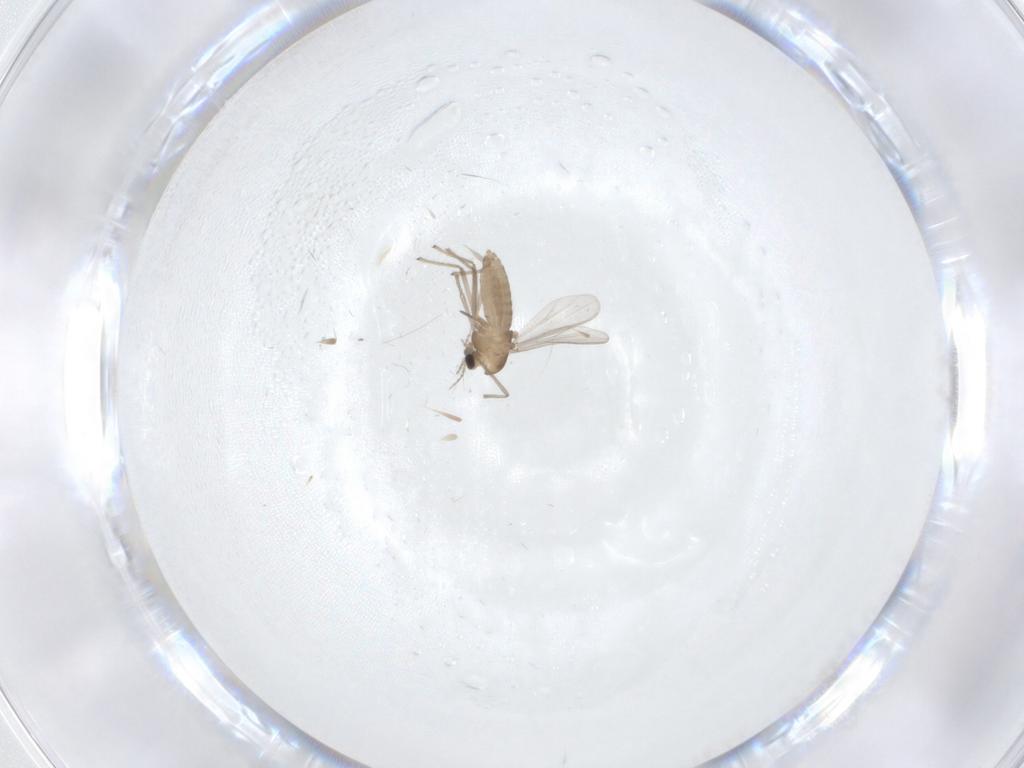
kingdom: Animalia
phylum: Arthropoda
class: Insecta
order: Diptera
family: Chironomidae
